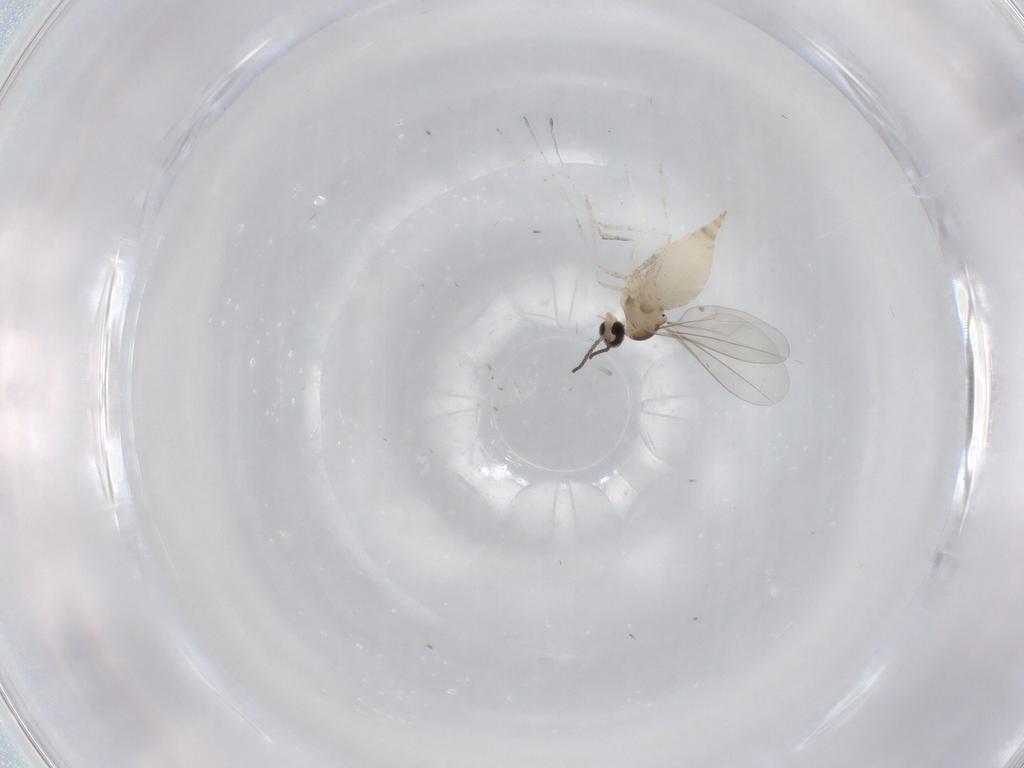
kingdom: Animalia
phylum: Arthropoda
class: Insecta
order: Diptera
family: Cecidomyiidae
